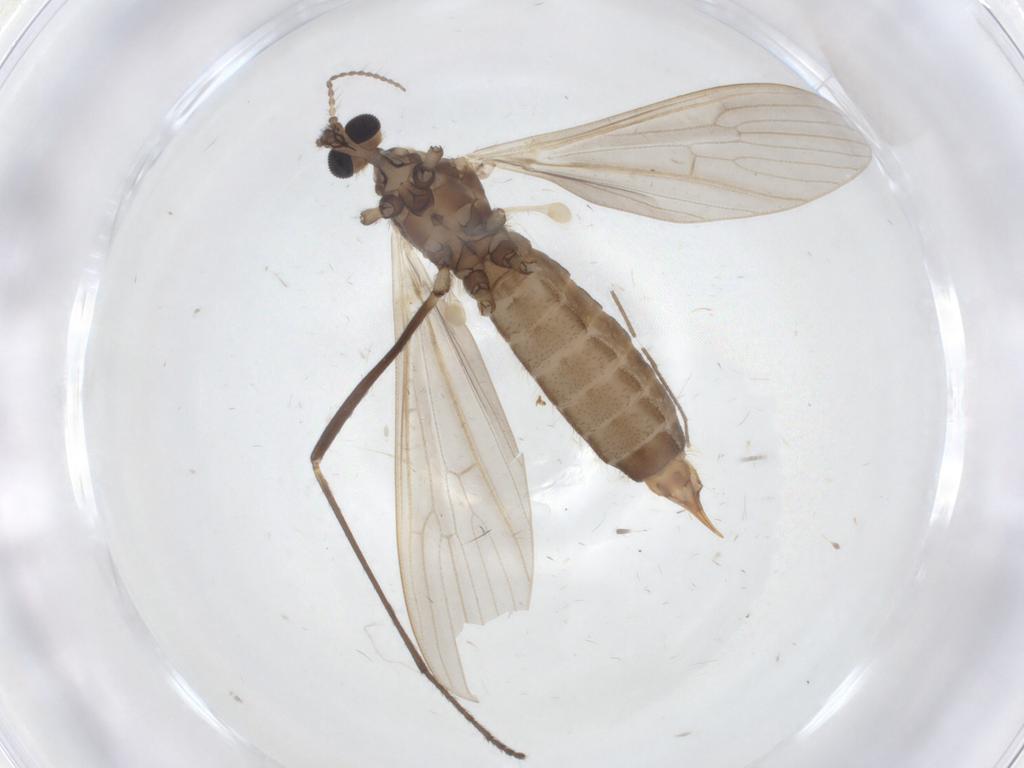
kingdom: Animalia
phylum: Arthropoda
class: Insecta
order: Diptera
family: Limoniidae
